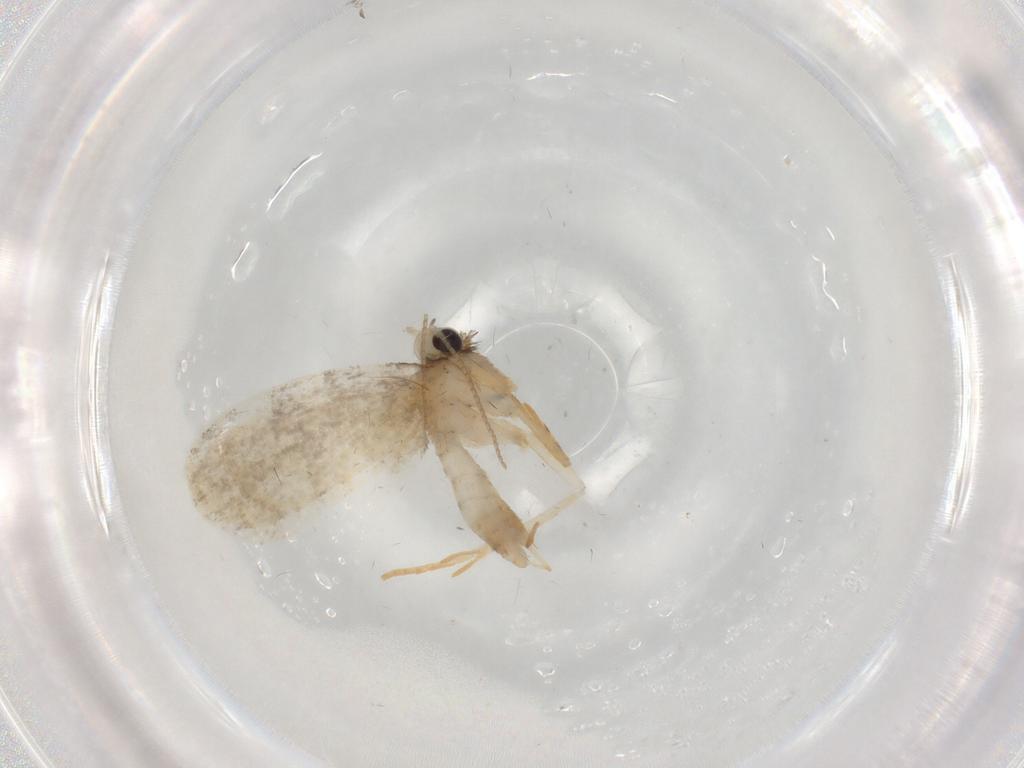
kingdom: Animalia
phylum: Arthropoda
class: Insecta
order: Lepidoptera
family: Psychidae
